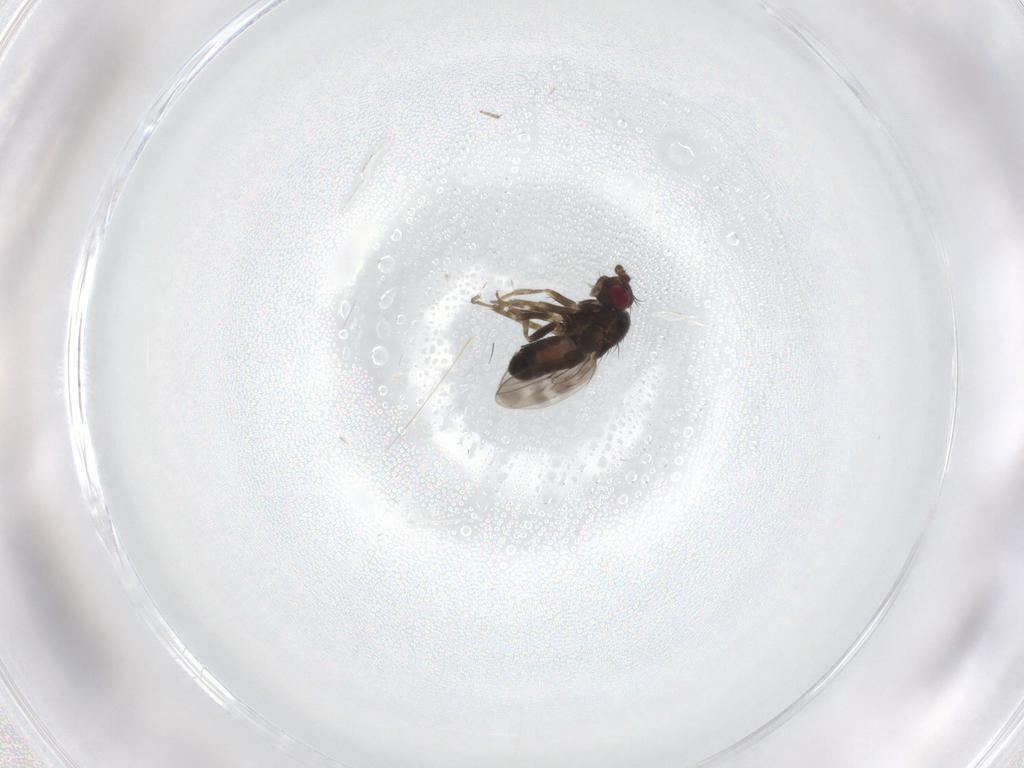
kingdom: Animalia
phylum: Arthropoda
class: Insecta
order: Diptera
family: Sphaeroceridae
